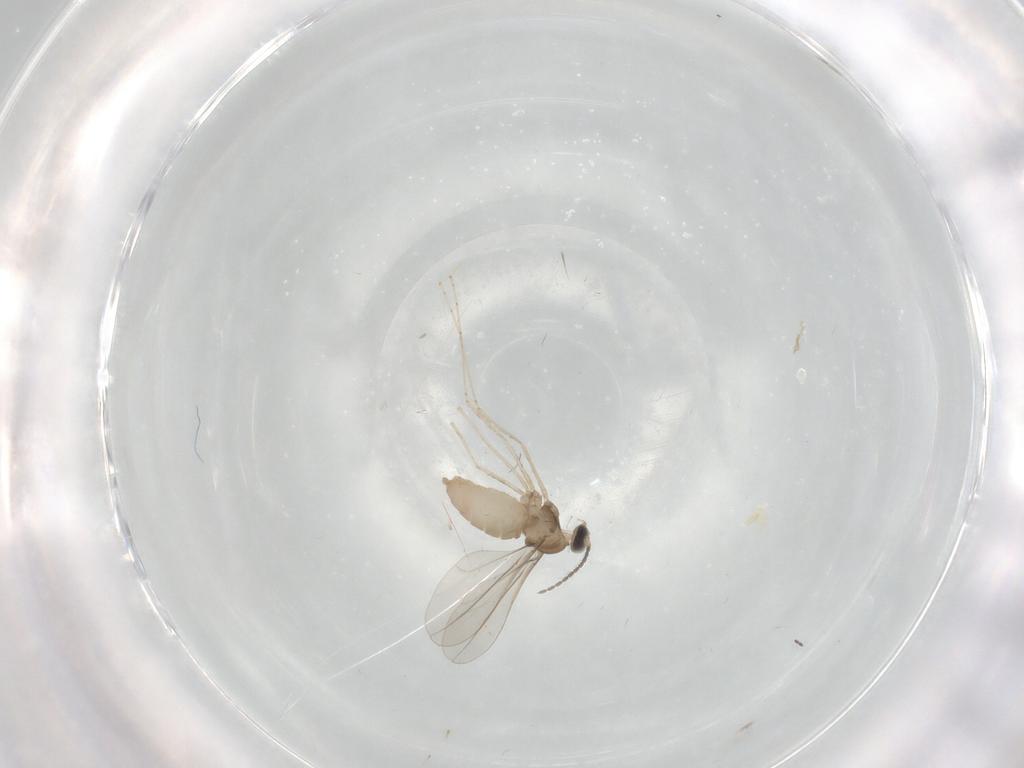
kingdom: Animalia
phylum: Arthropoda
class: Insecta
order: Diptera
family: Cecidomyiidae
